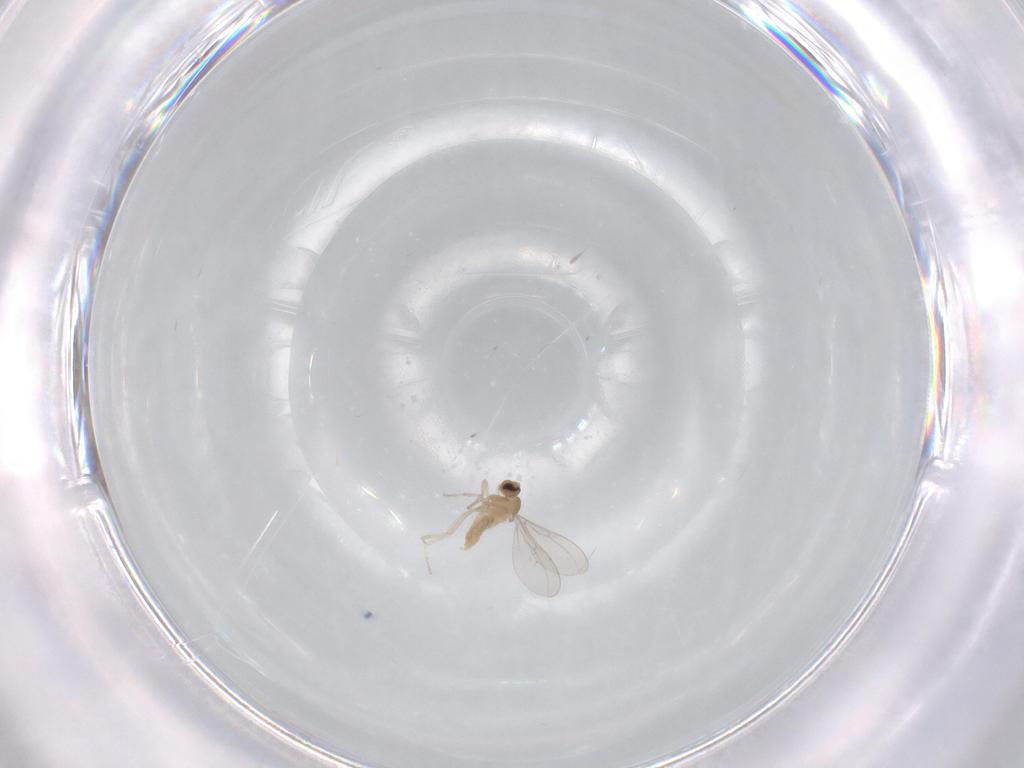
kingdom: Animalia
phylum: Arthropoda
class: Insecta
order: Diptera
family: Cecidomyiidae
